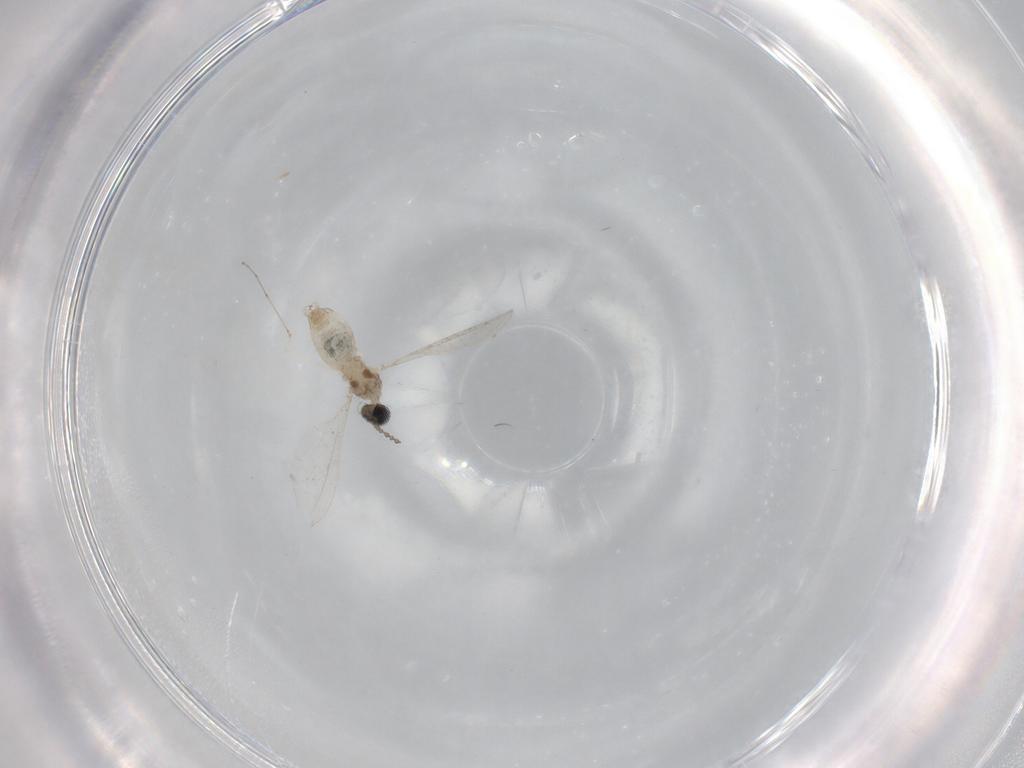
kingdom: Animalia
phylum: Arthropoda
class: Insecta
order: Diptera
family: Cecidomyiidae
